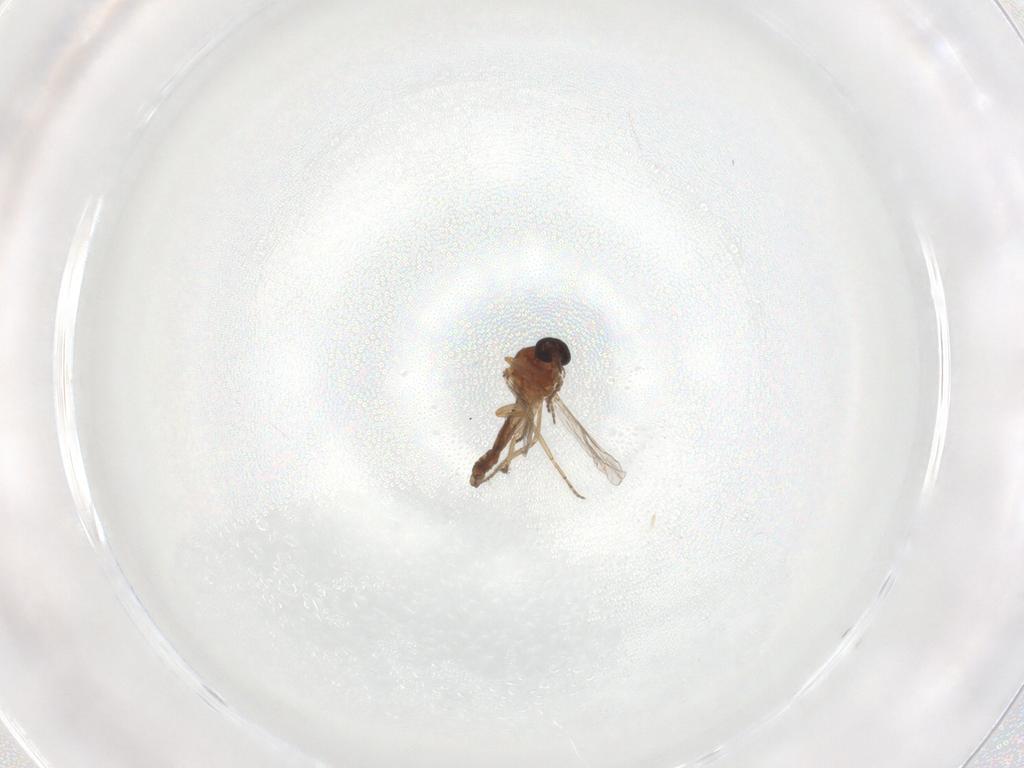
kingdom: Animalia
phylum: Arthropoda
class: Insecta
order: Diptera
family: Ceratopogonidae
